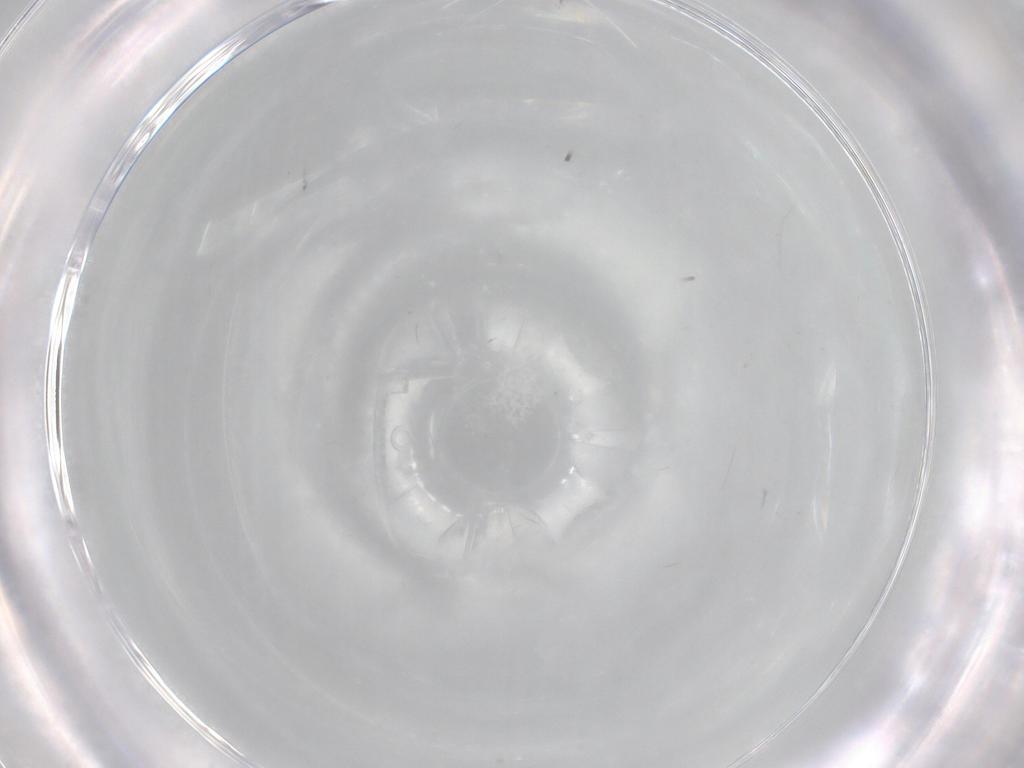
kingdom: Animalia
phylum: Arthropoda
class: Insecta
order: Diptera
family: Cecidomyiidae
